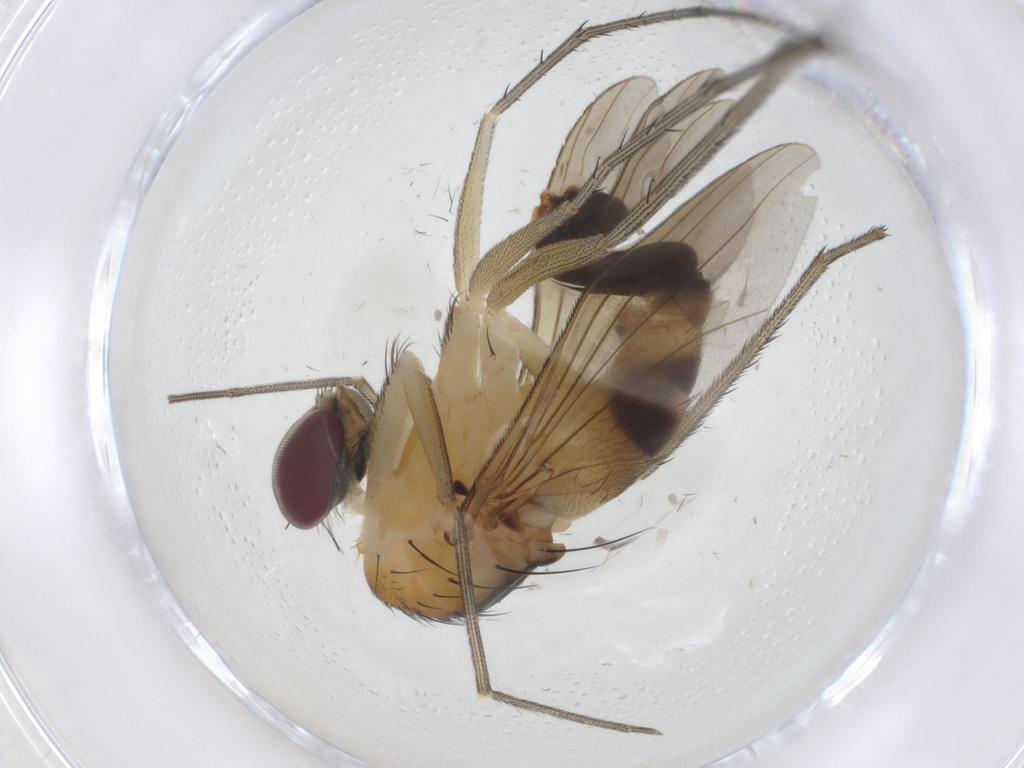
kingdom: Animalia
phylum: Arthropoda
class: Insecta
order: Diptera
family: Dolichopodidae
